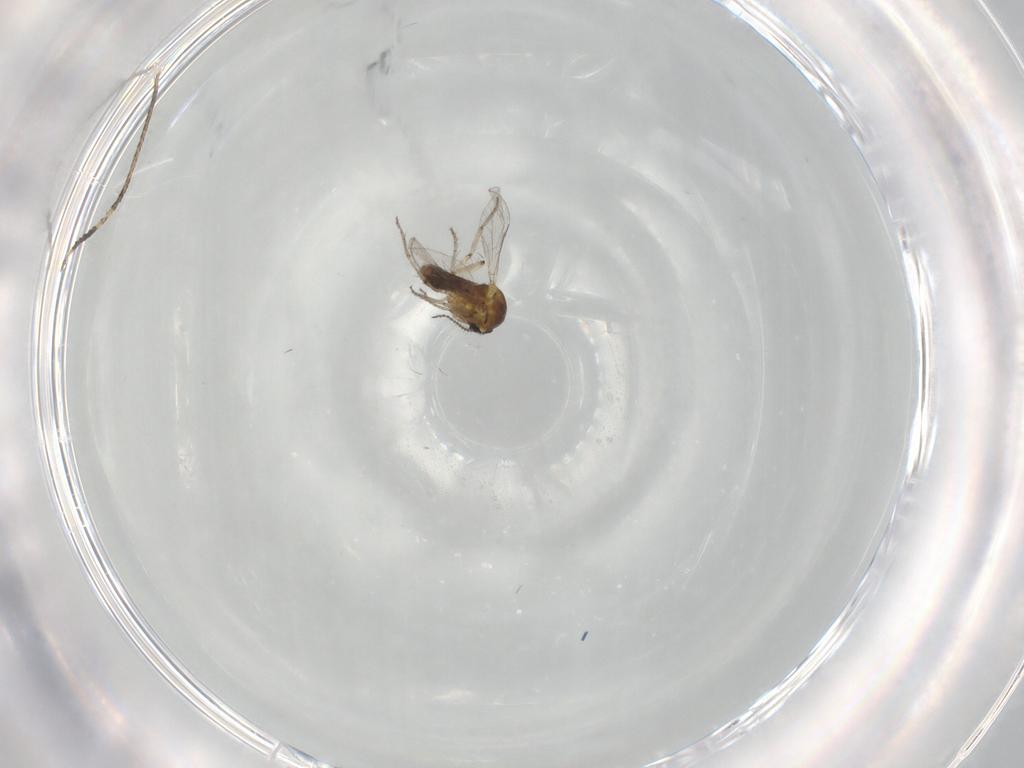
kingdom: Animalia
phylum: Arthropoda
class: Insecta
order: Diptera
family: Ceratopogonidae
